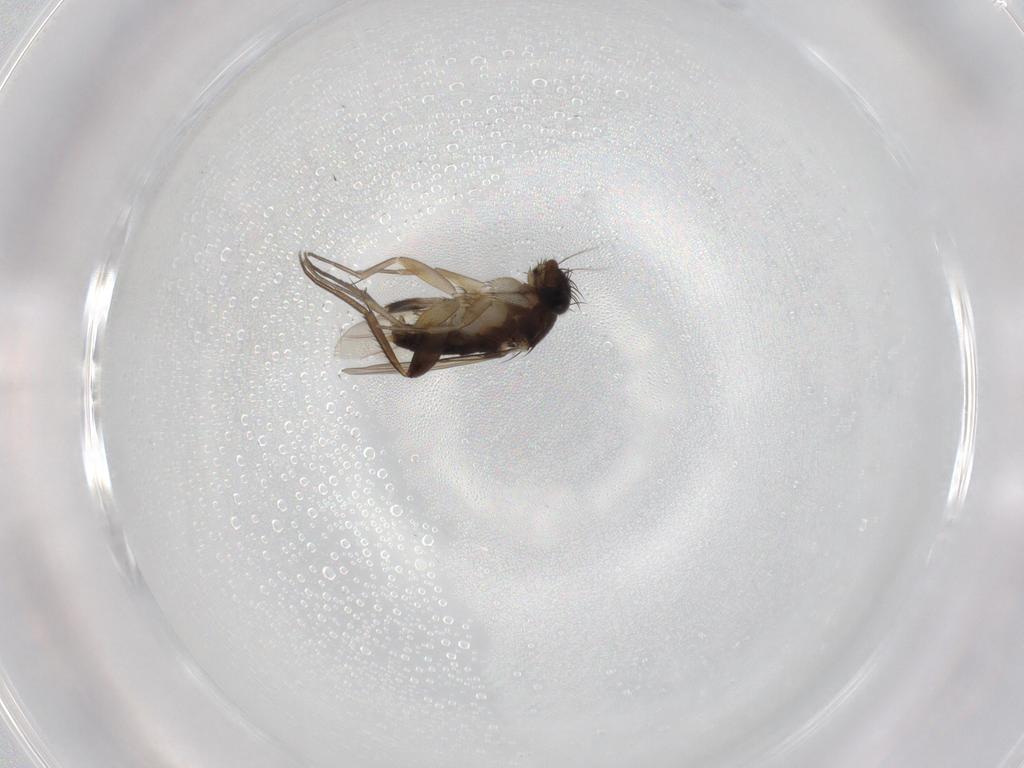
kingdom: Animalia
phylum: Arthropoda
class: Insecta
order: Diptera
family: Phoridae
